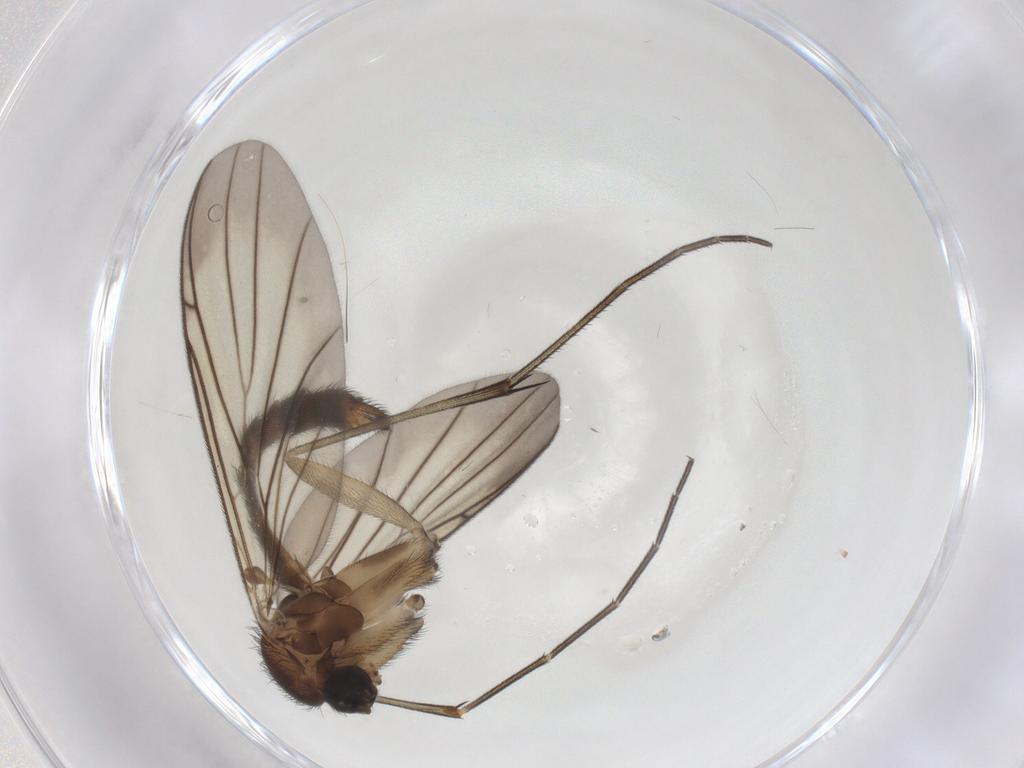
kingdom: Animalia
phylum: Arthropoda
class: Insecta
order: Diptera
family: Keroplatidae
